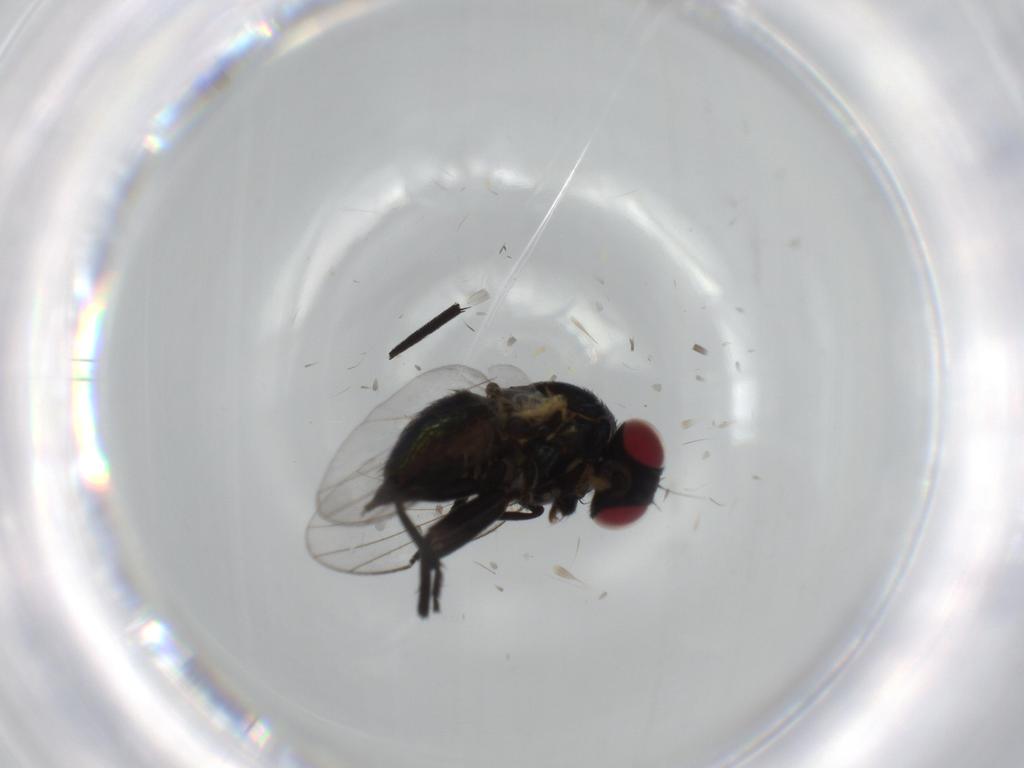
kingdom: Animalia
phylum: Arthropoda
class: Insecta
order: Diptera
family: Agromyzidae
